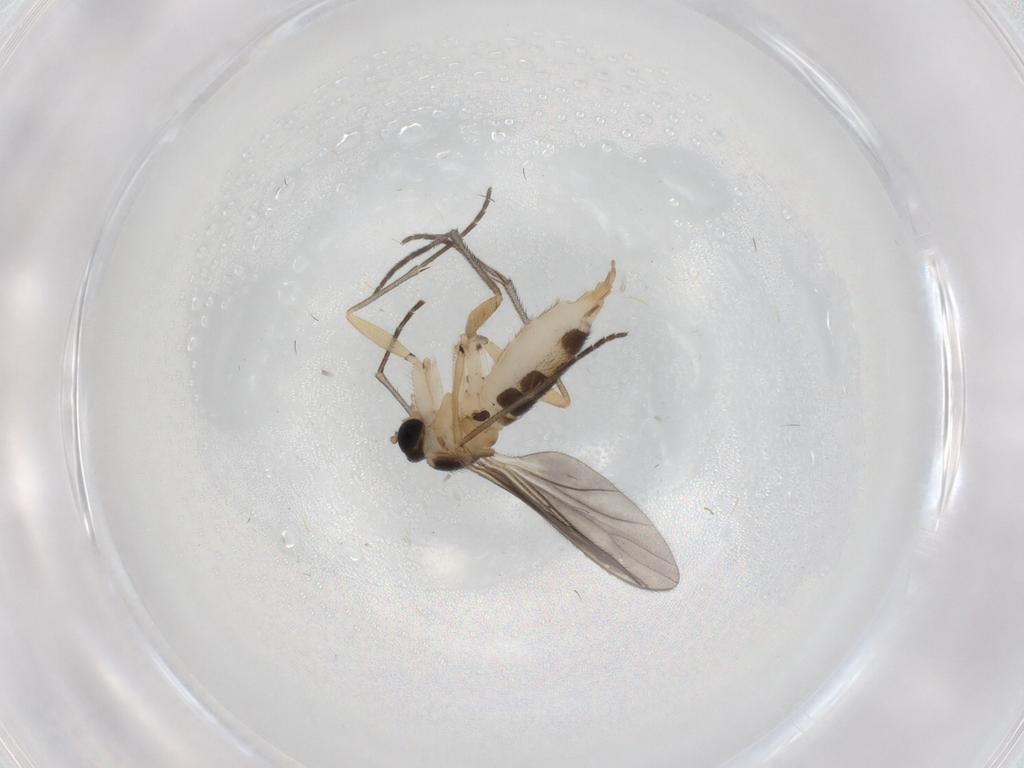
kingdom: Animalia
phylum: Arthropoda
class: Insecta
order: Diptera
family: Sciaridae
